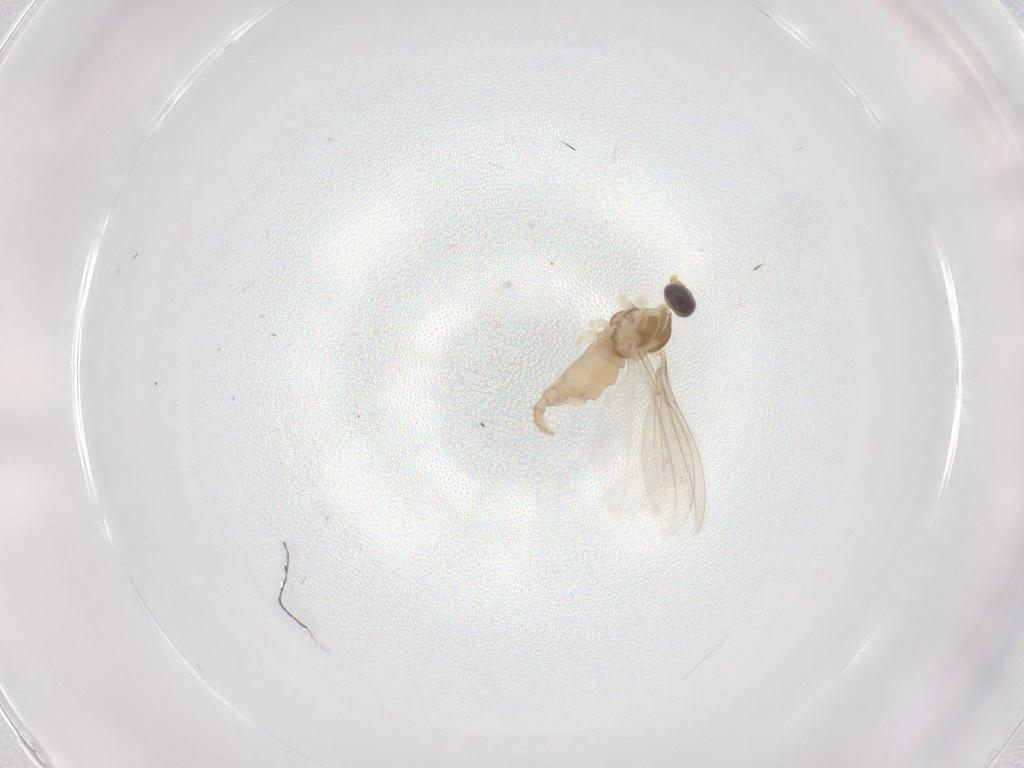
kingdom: Animalia
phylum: Arthropoda
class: Insecta
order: Diptera
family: Cecidomyiidae
